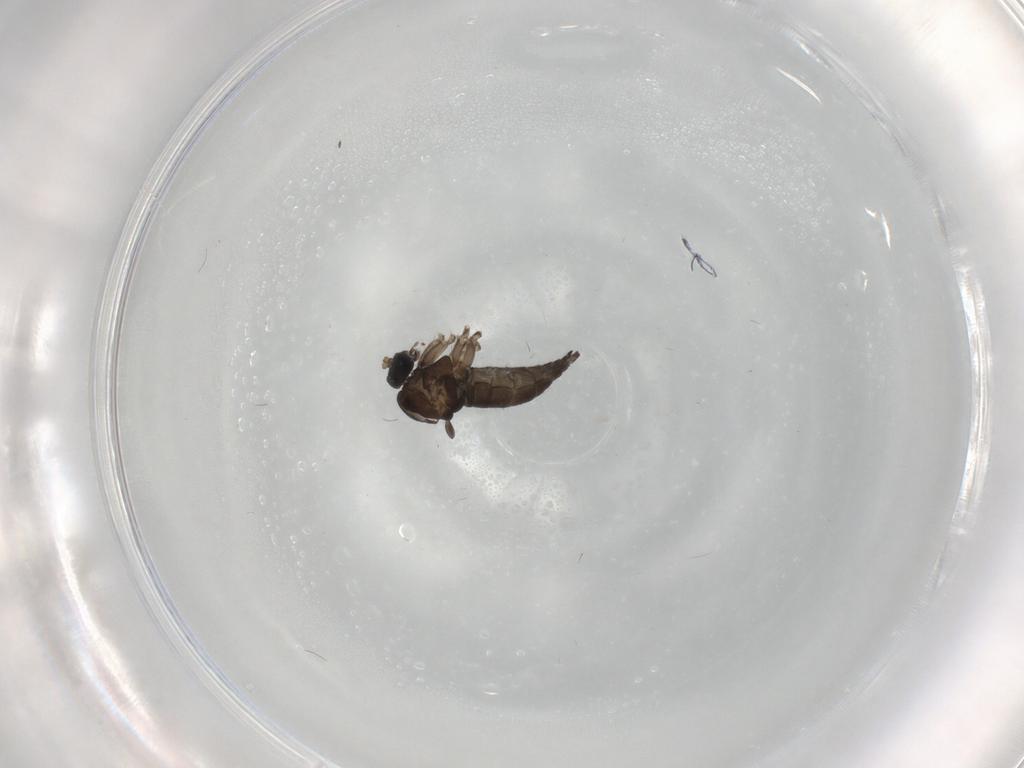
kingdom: Animalia
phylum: Arthropoda
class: Insecta
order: Diptera
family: Sciaridae
